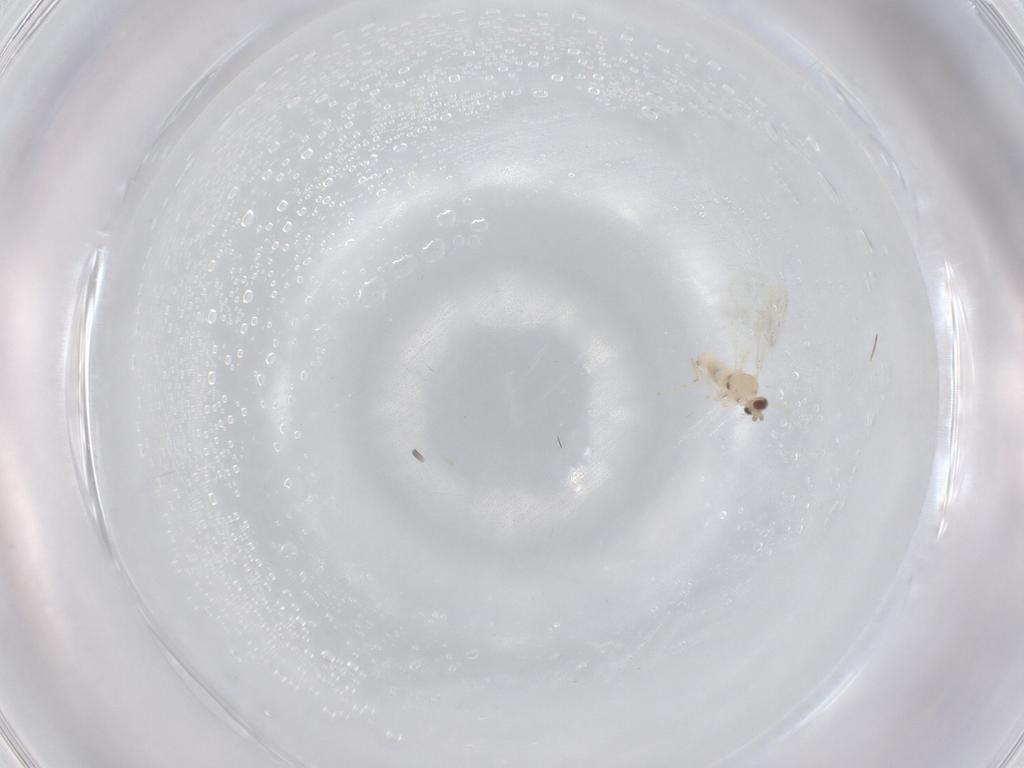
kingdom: Animalia
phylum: Arthropoda
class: Insecta
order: Diptera
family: Cecidomyiidae
